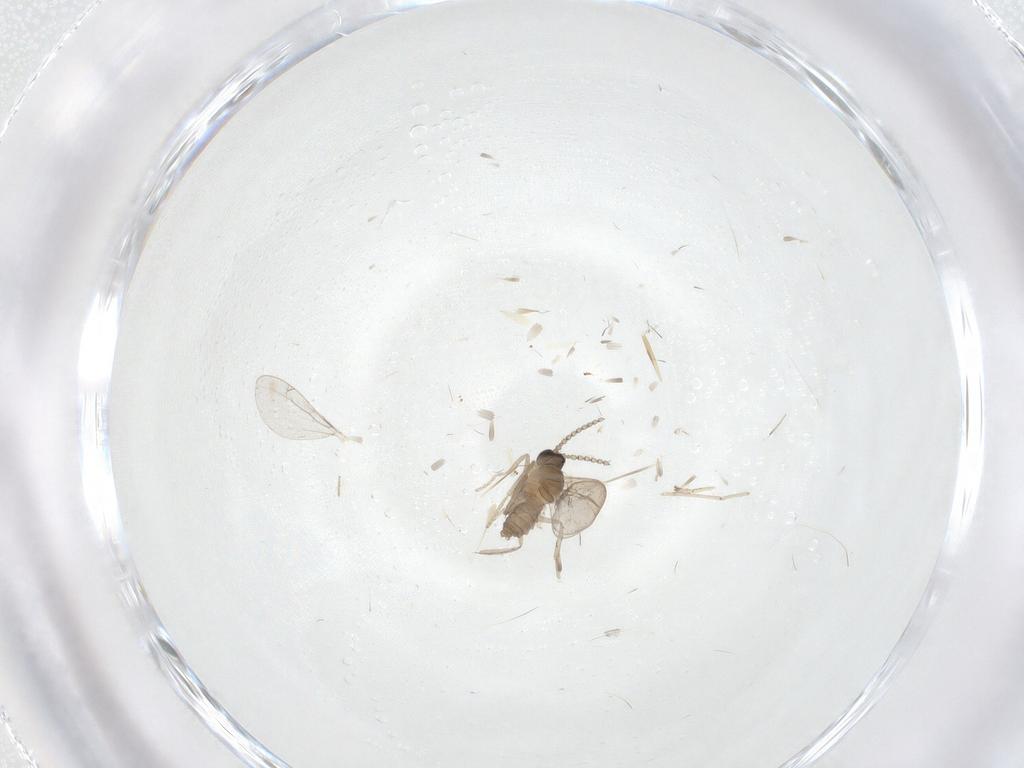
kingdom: Animalia
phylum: Arthropoda
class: Insecta
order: Diptera
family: Cecidomyiidae
